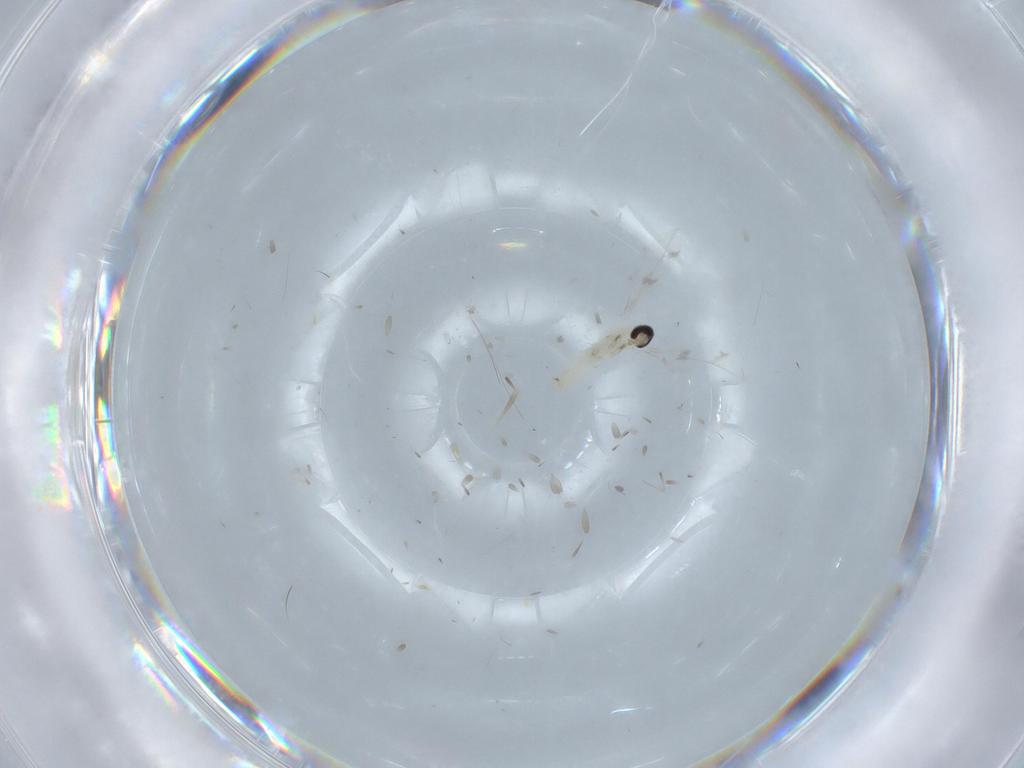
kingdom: Animalia
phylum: Arthropoda
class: Insecta
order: Diptera
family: Cecidomyiidae
